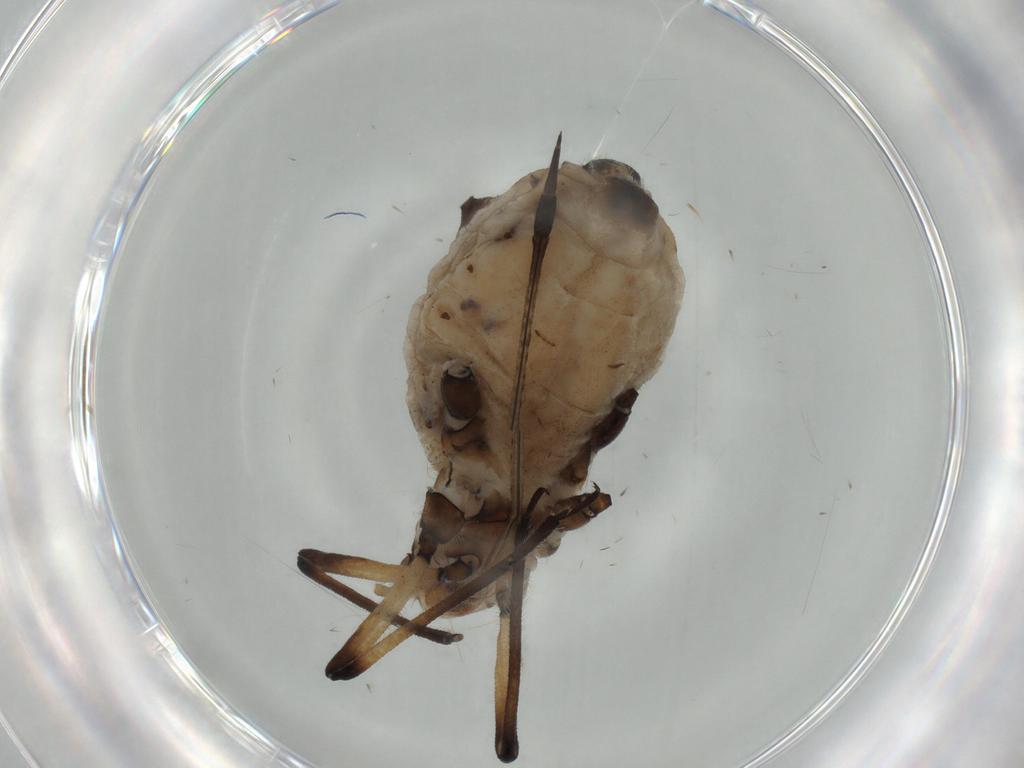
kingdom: Animalia
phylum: Arthropoda
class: Insecta
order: Hemiptera
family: Aphididae
